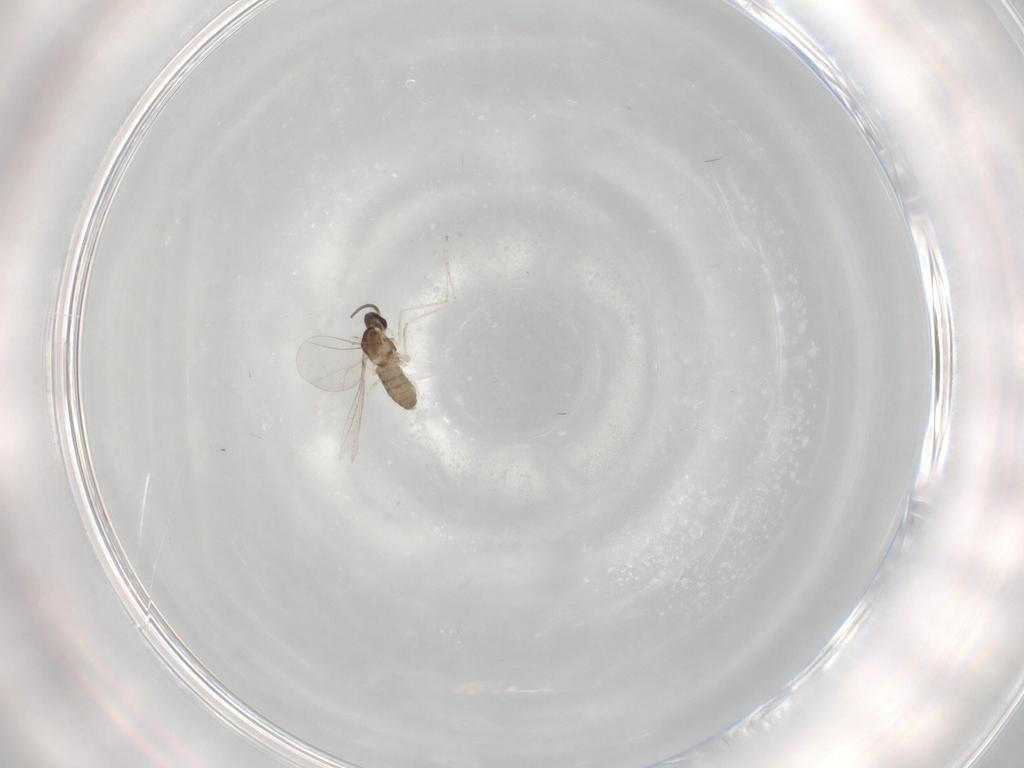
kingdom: Animalia
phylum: Arthropoda
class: Insecta
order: Diptera
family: Cecidomyiidae
